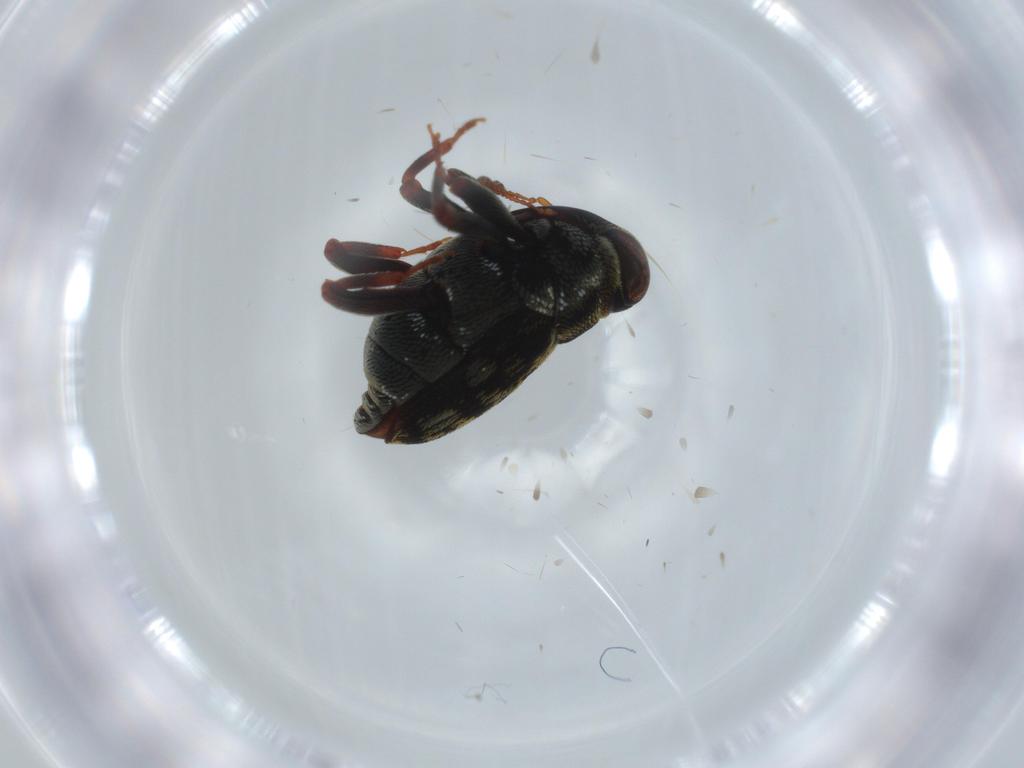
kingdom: Animalia
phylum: Arthropoda
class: Insecta
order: Coleoptera
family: Curculionidae
